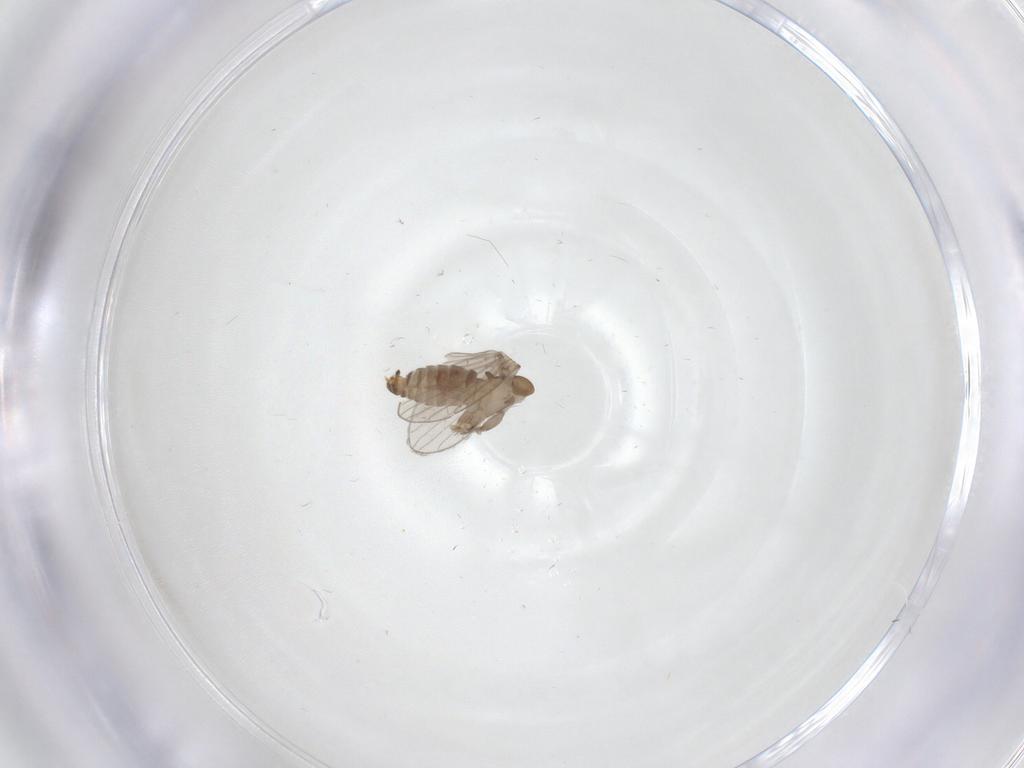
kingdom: Animalia
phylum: Arthropoda
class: Insecta
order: Diptera
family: Psychodidae
